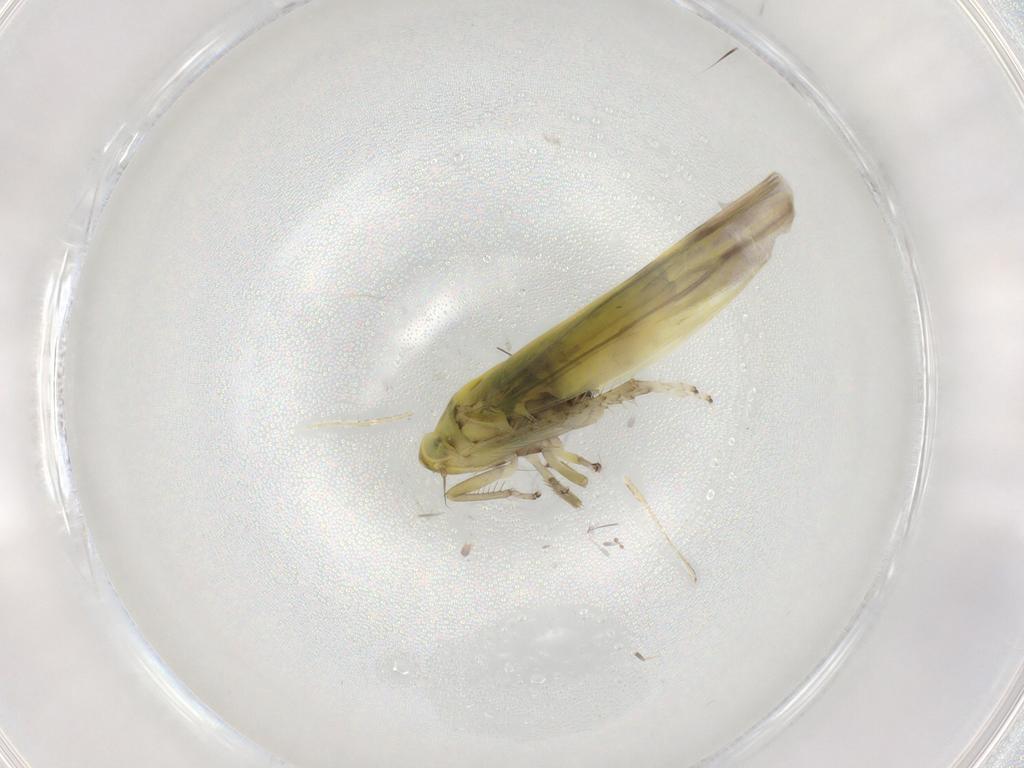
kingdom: Animalia
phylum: Arthropoda
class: Insecta
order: Hemiptera
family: Cicadellidae
